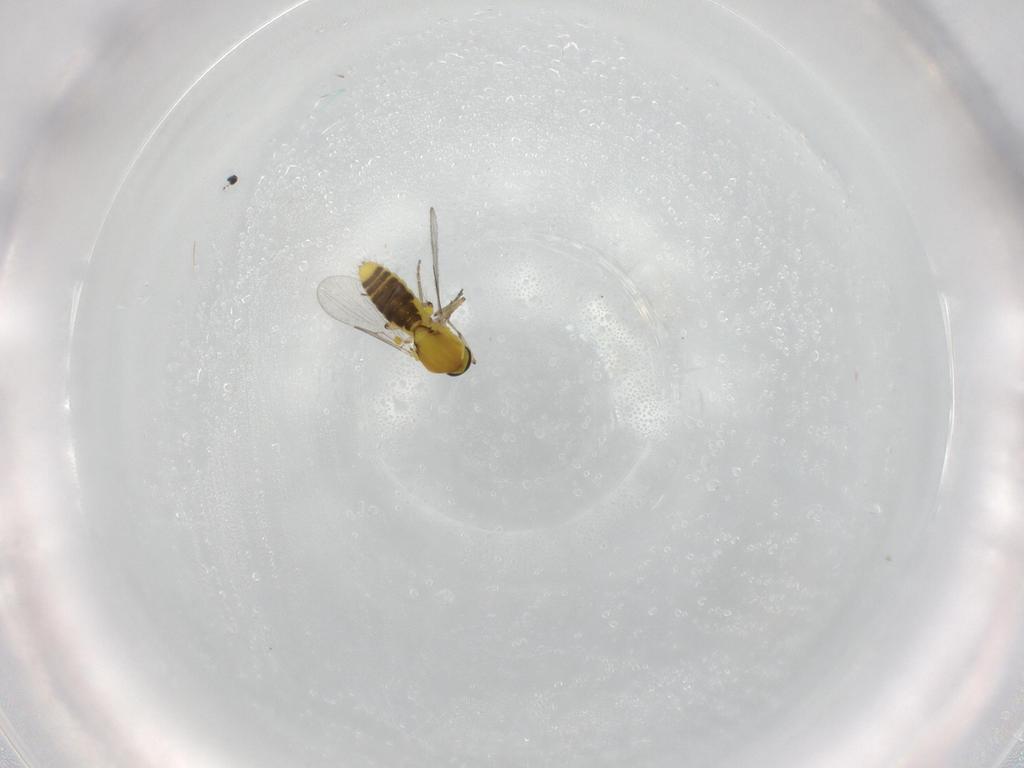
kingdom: Animalia
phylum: Arthropoda
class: Insecta
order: Diptera
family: Ceratopogonidae
